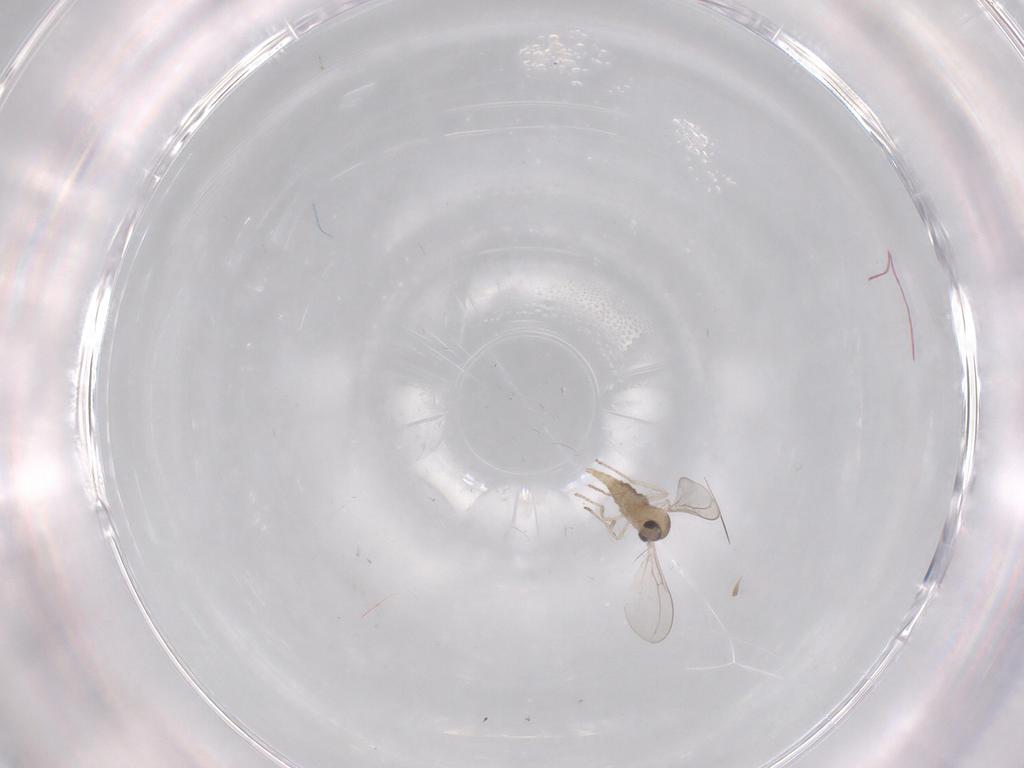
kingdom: Animalia
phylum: Arthropoda
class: Insecta
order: Diptera
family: Cecidomyiidae
